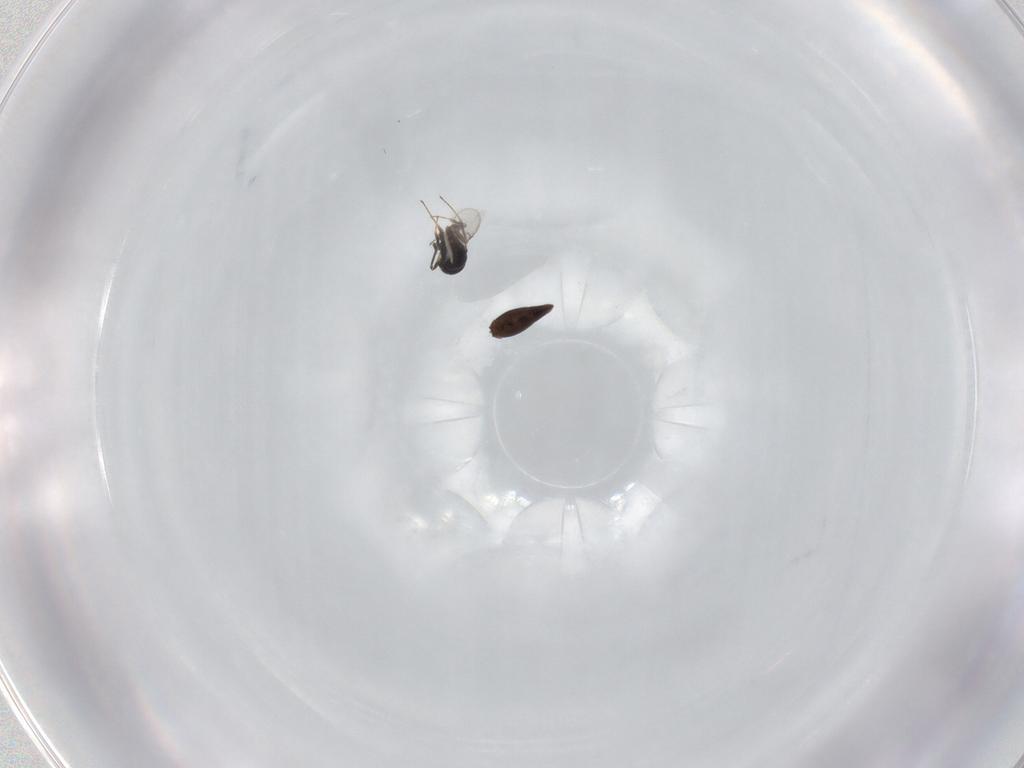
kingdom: Animalia
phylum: Arthropoda
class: Insecta
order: Hymenoptera
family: Scelionidae
